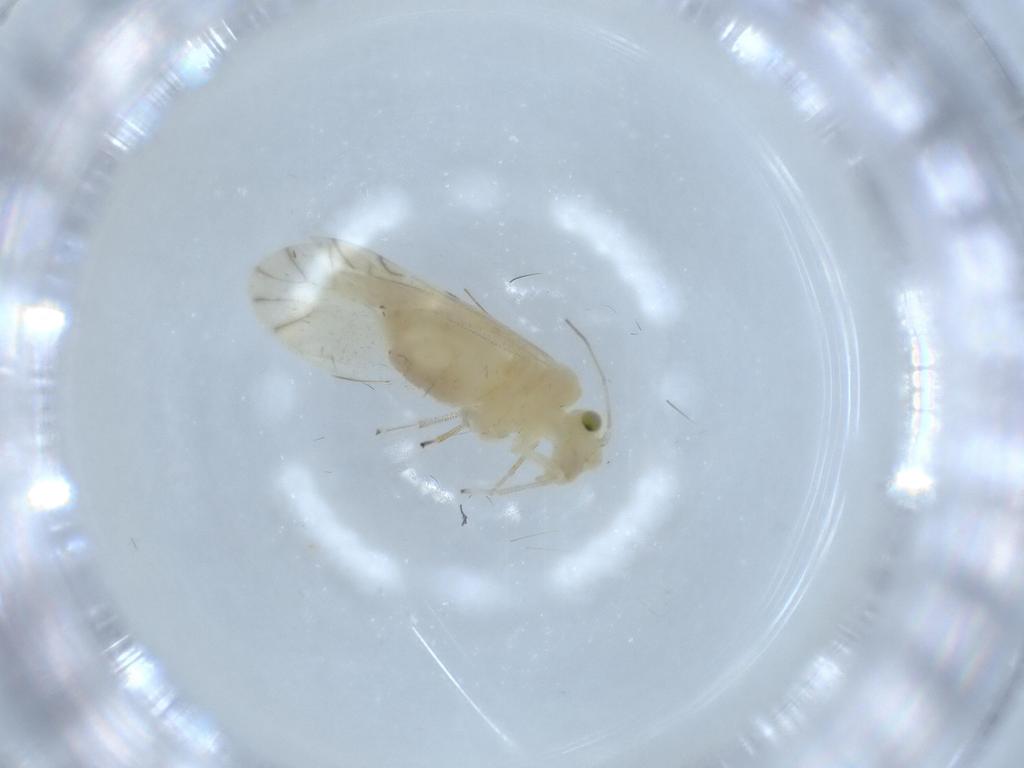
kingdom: Animalia
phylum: Arthropoda
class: Insecta
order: Psocodea
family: Caeciliusidae
